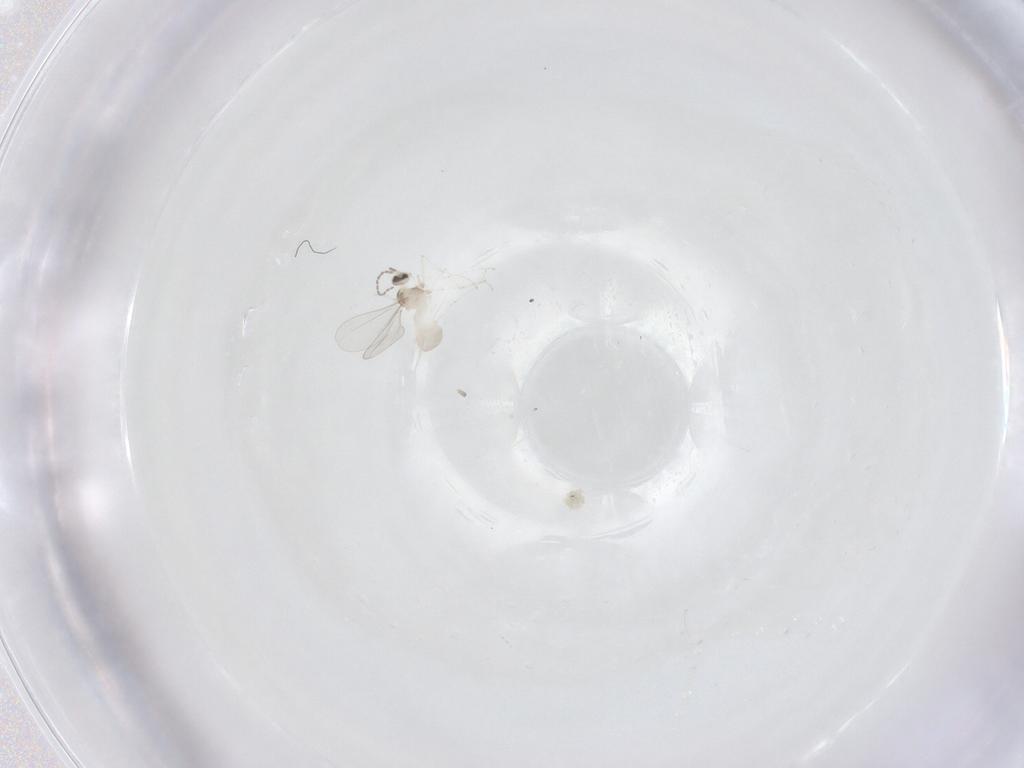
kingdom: Animalia
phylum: Arthropoda
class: Insecta
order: Diptera
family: Cecidomyiidae
